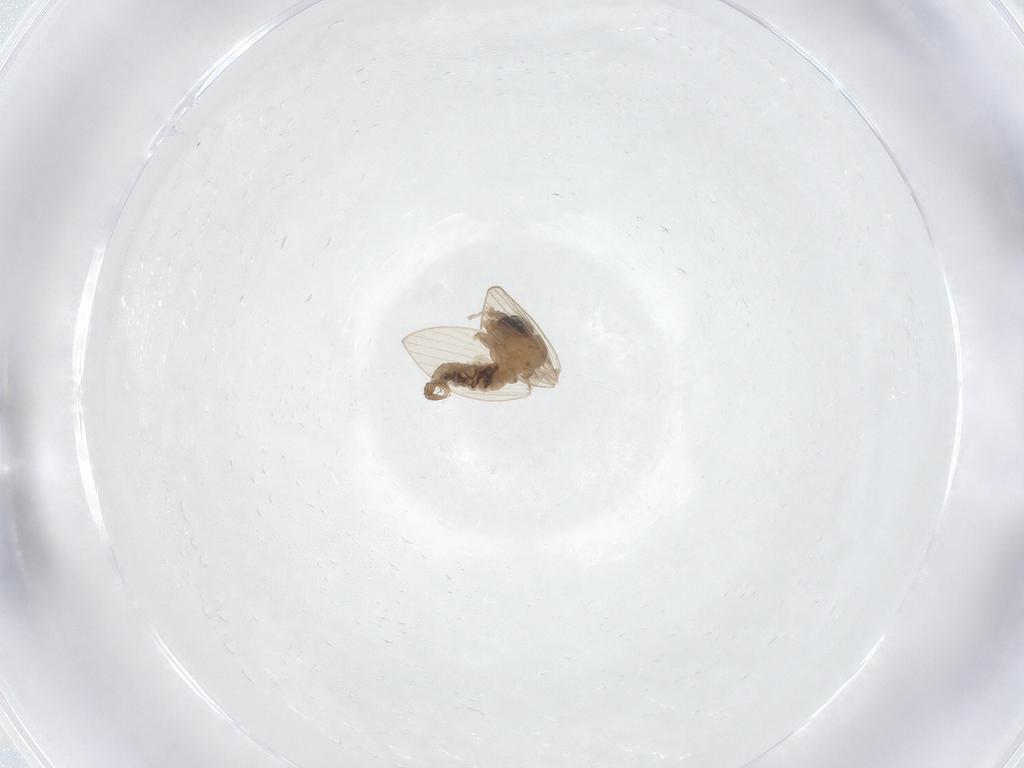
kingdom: Animalia
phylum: Arthropoda
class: Insecta
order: Diptera
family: Psychodidae
